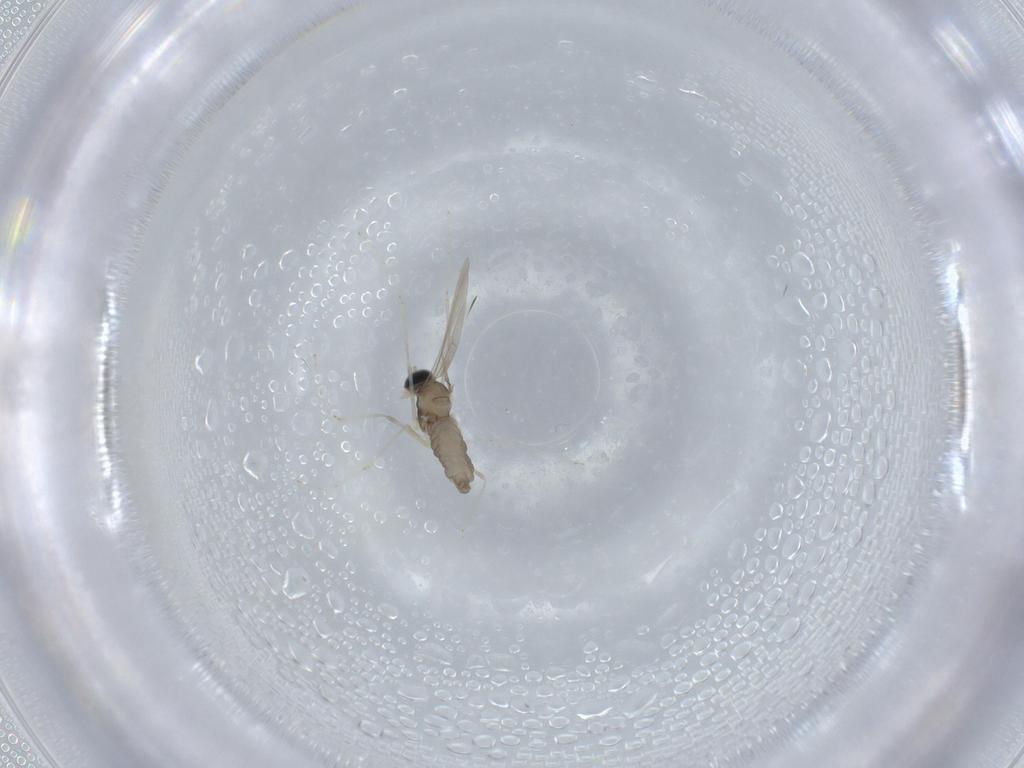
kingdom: Animalia
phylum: Arthropoda
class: Insecta
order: Diptera
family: Cecidomyiidae
